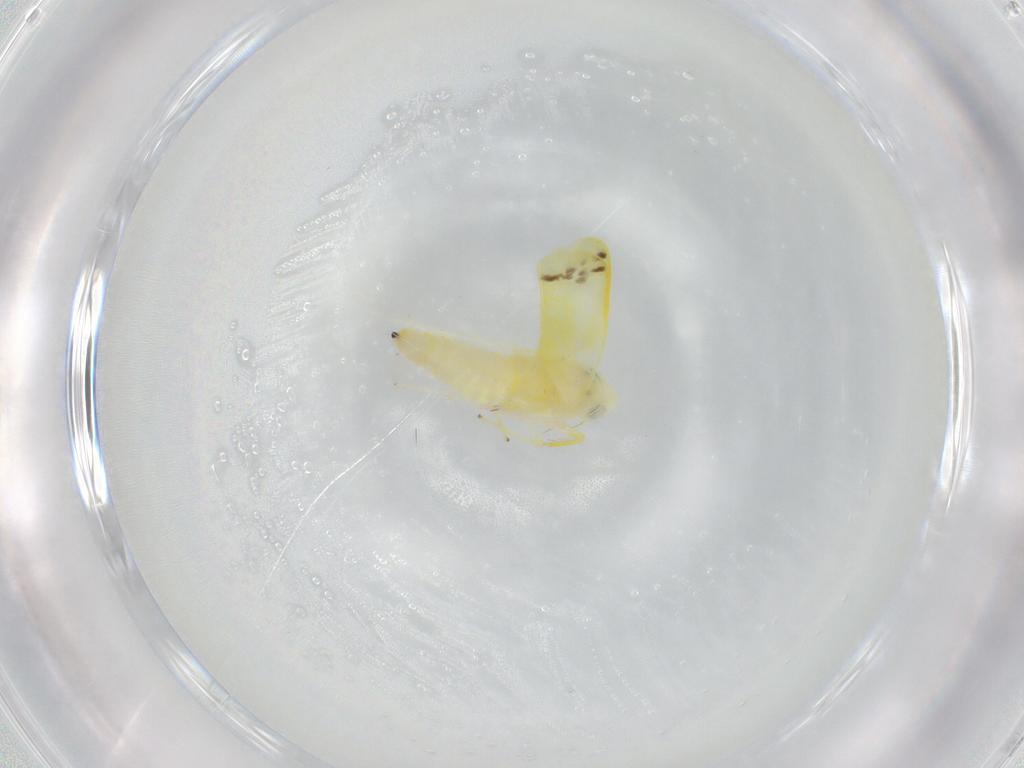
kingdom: Animalia
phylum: Arthropoda
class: Insecta
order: Hemiptera
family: Cicadellidae
